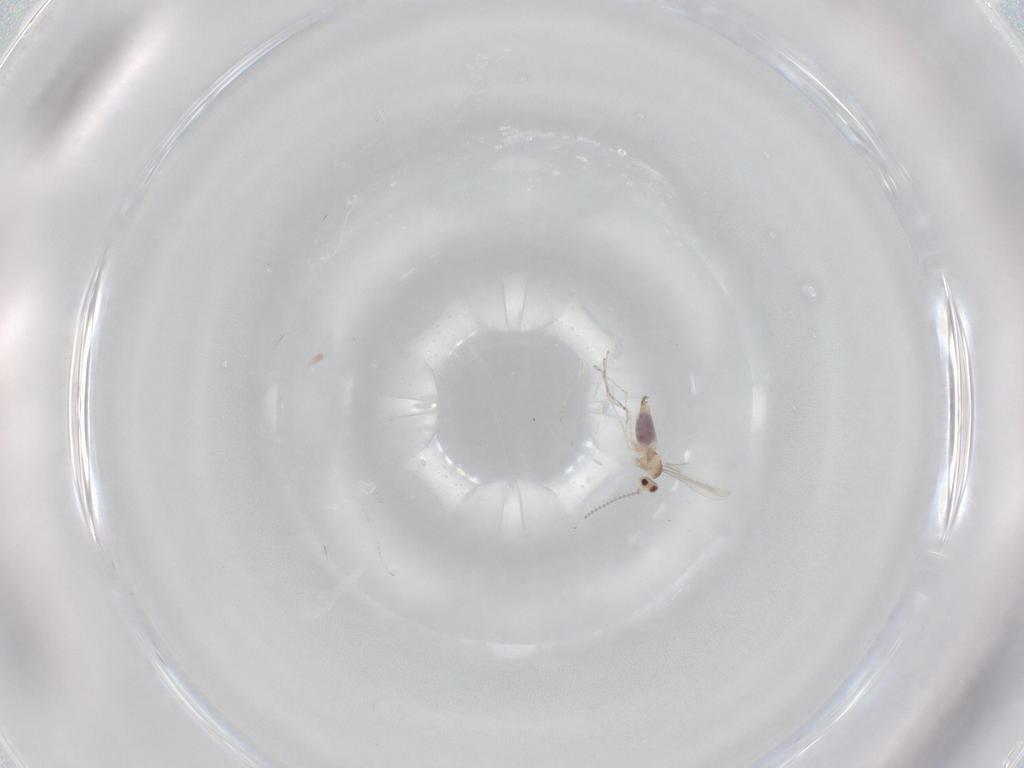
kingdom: Animalia
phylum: Arthropoda
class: Insecta
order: Diptera
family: Cecidomyiidae
